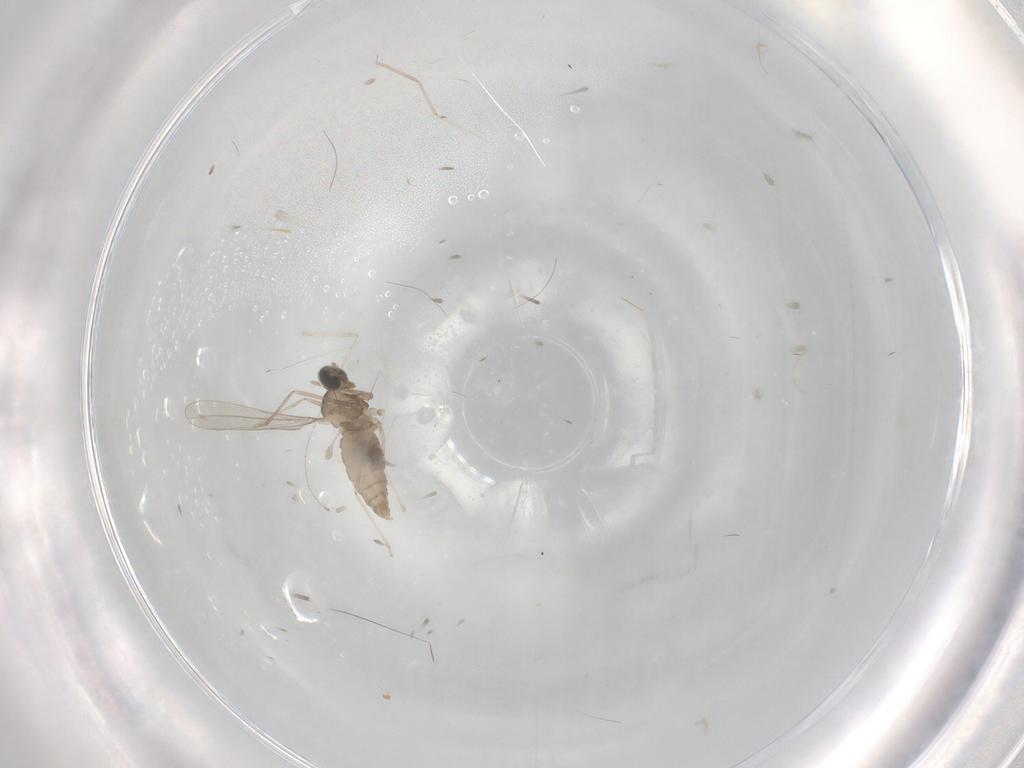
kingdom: Animalia
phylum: Arthropoda
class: Insecta
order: Diptera
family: Cecidomyiidae
